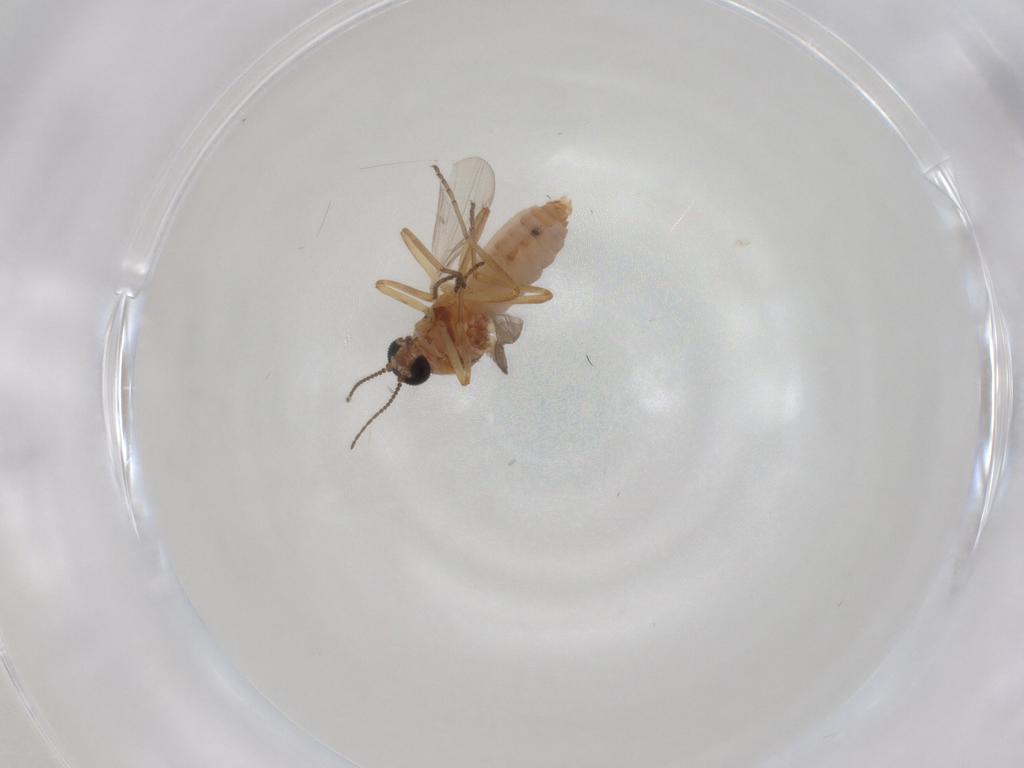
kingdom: Animalia
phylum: Arthropoda
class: Insecta
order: Diptera
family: Ceratopogonidae
